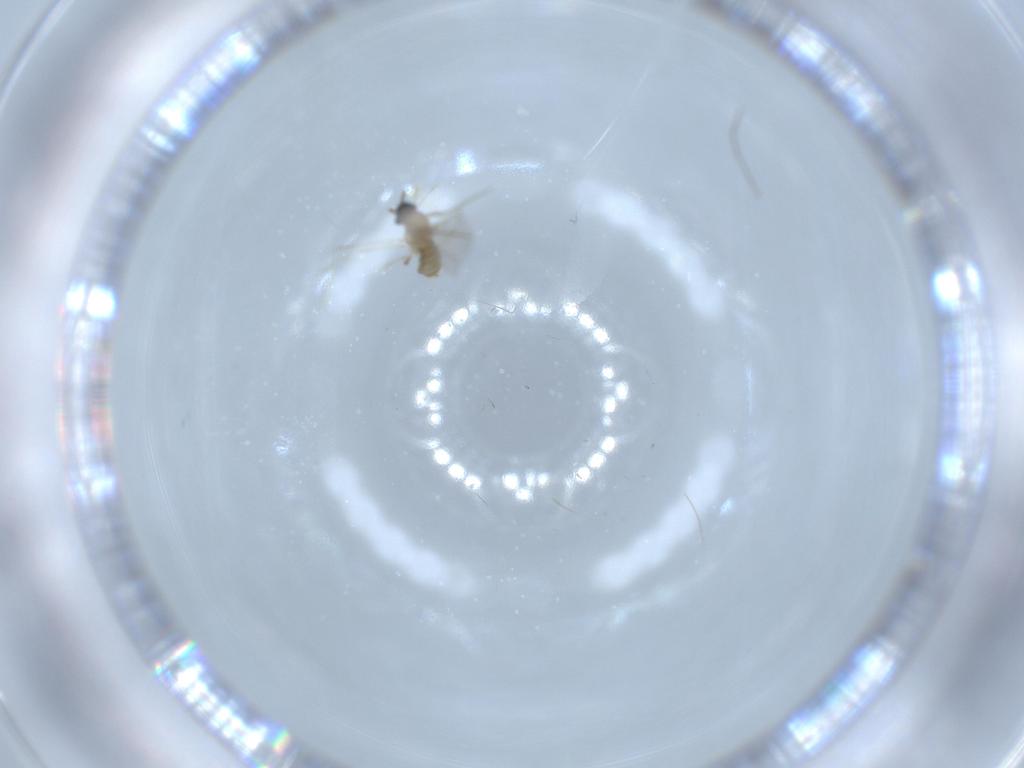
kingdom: Animalia
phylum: Arthropoda
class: Insecta
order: Diptera
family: Cecidomyiidae
